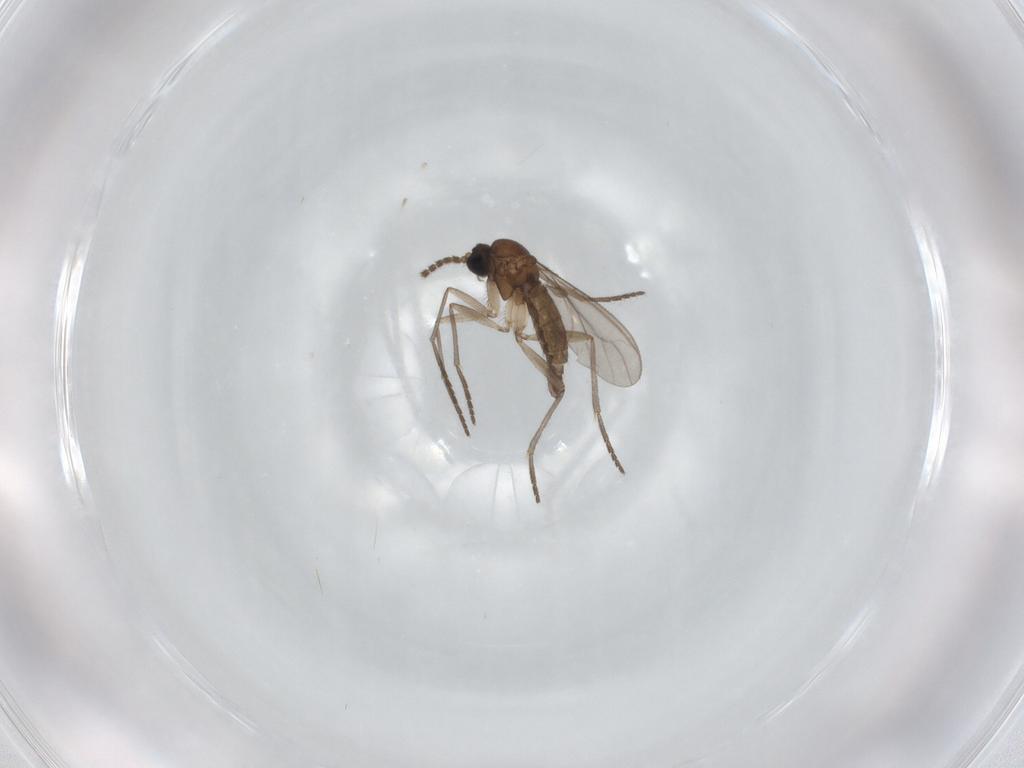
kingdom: Animalia
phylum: Arthropoda
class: Insecta
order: Diptera
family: Sciaridae
